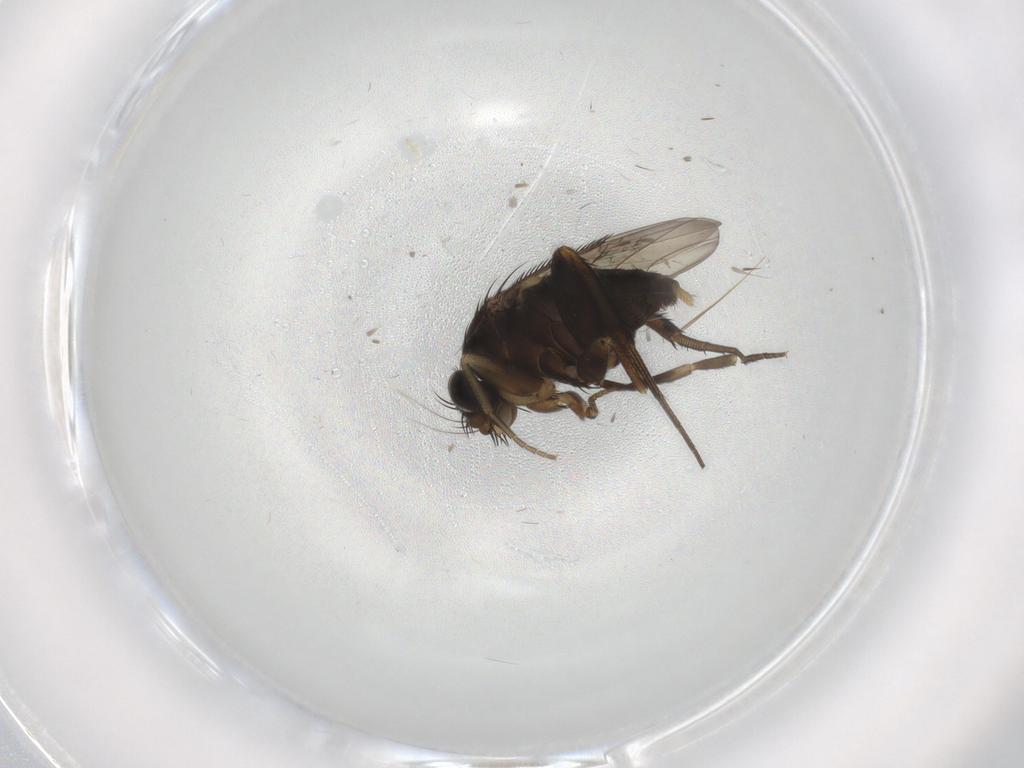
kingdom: Animalia
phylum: Arthropoda
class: Insecta
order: Diptera
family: Phoridae
